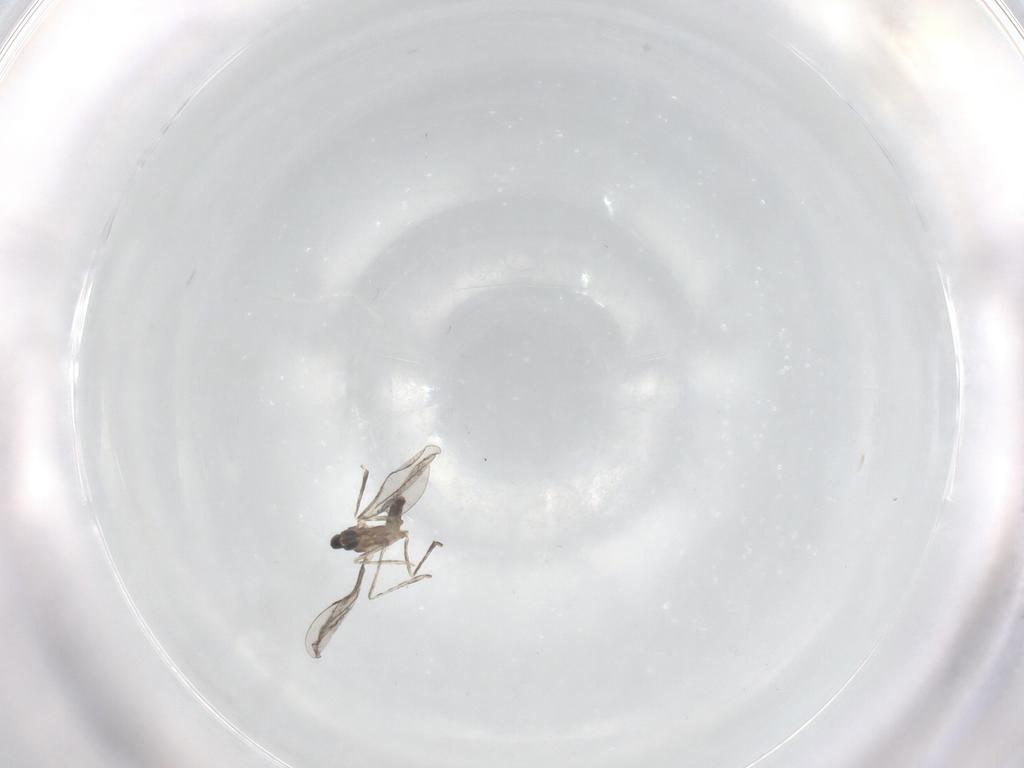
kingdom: Animalia
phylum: Arthropoda
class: Insecta
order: Diptera
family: Cecidomyiidae
